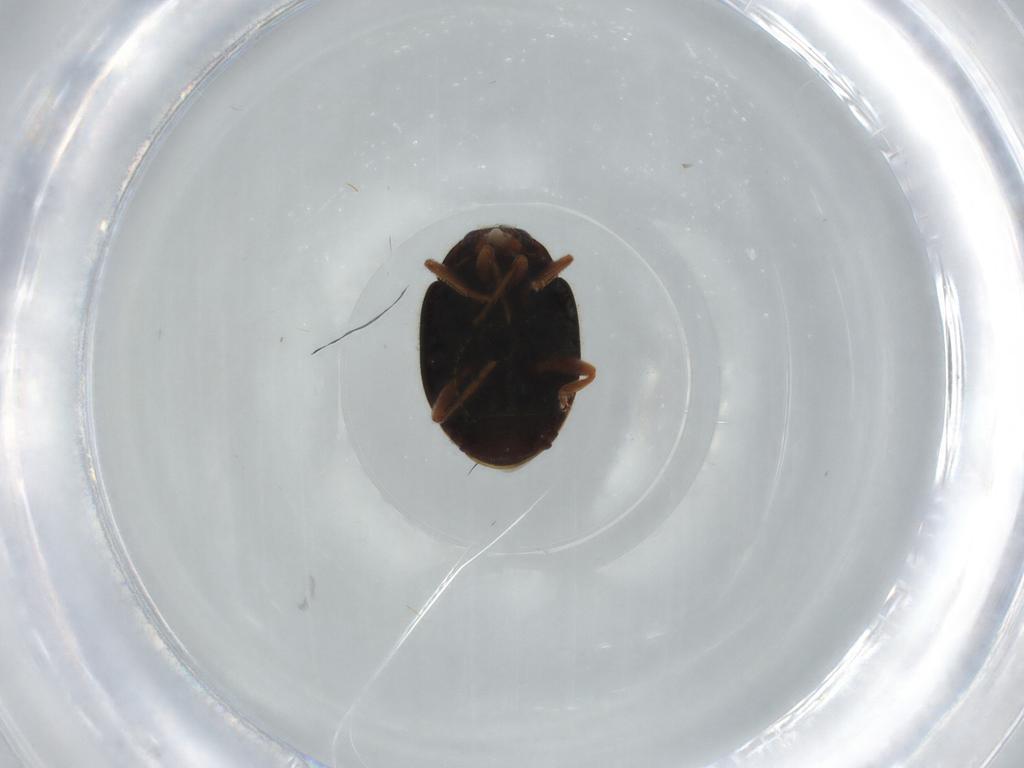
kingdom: Animalia
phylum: Arthropoda
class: Insecta
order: Coleoptera
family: Coccinellidae
